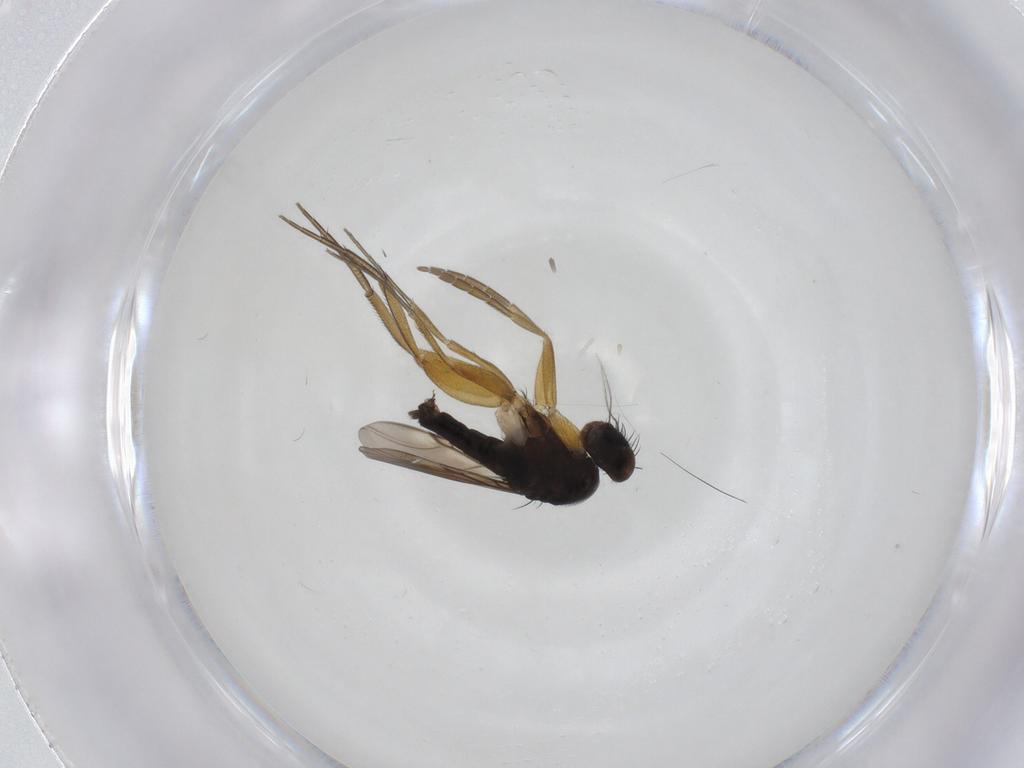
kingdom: Animalia
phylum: Arthropoda
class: Insecta
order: Diptera
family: Phoridae
